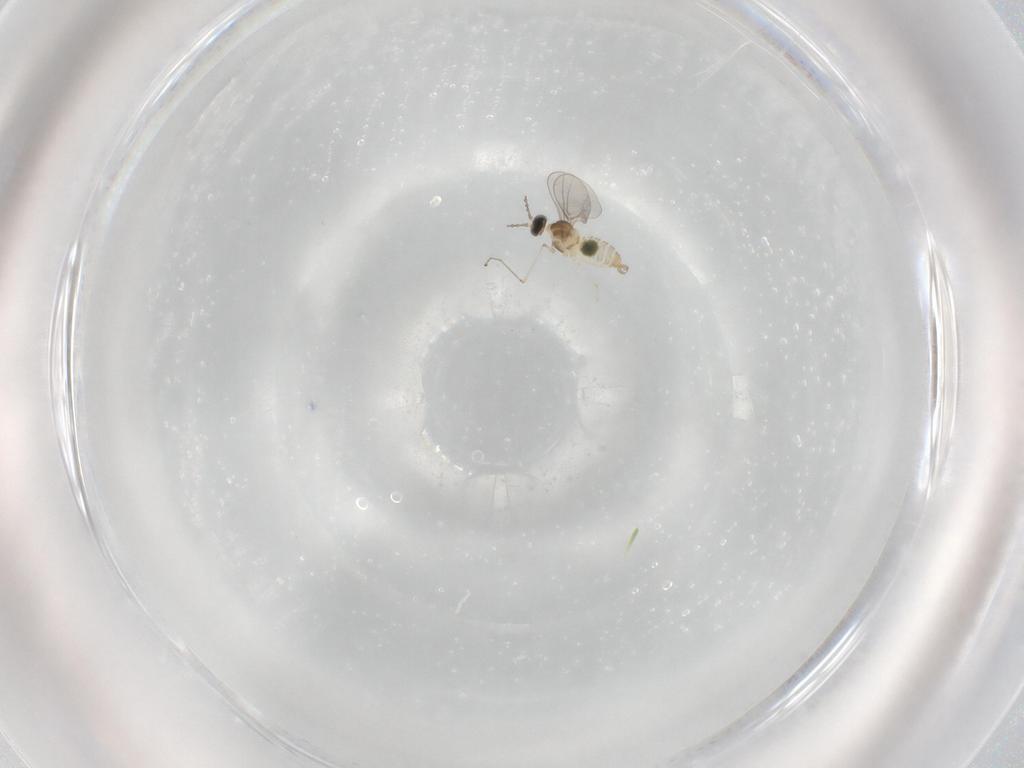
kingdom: Animalia
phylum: Arthropoda
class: Insecta
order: Diptera
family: Cecidomyiidae
